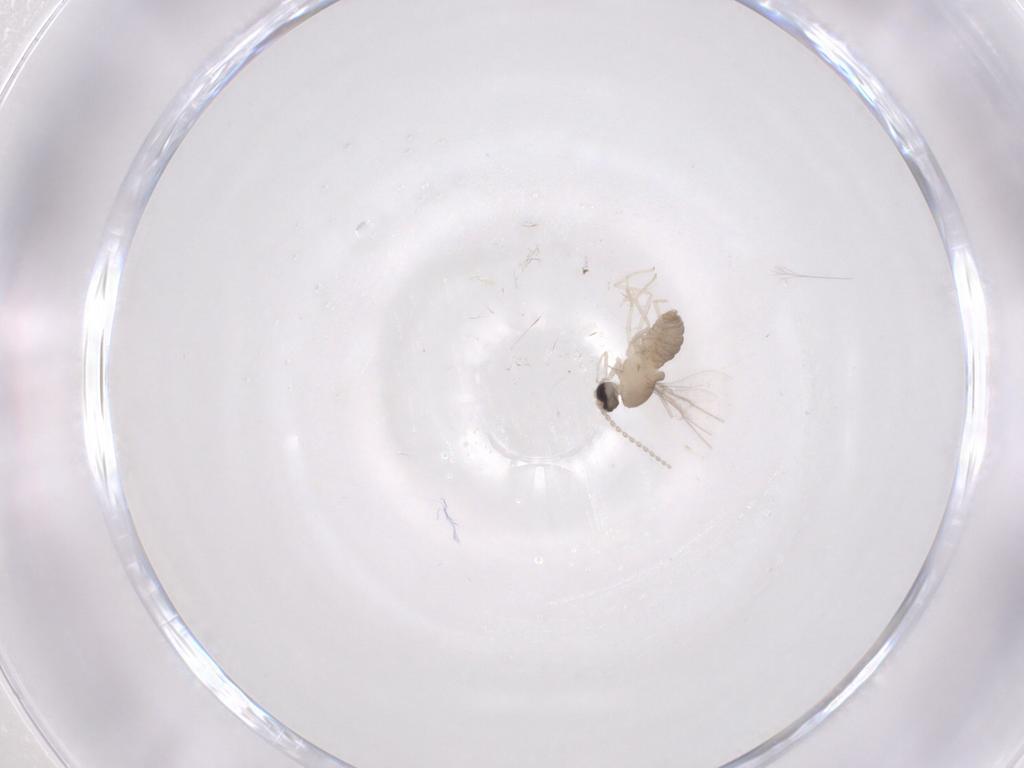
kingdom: Animalia
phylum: Arthropoda
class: Insecta
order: Diptera
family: Cecidomyiidae
